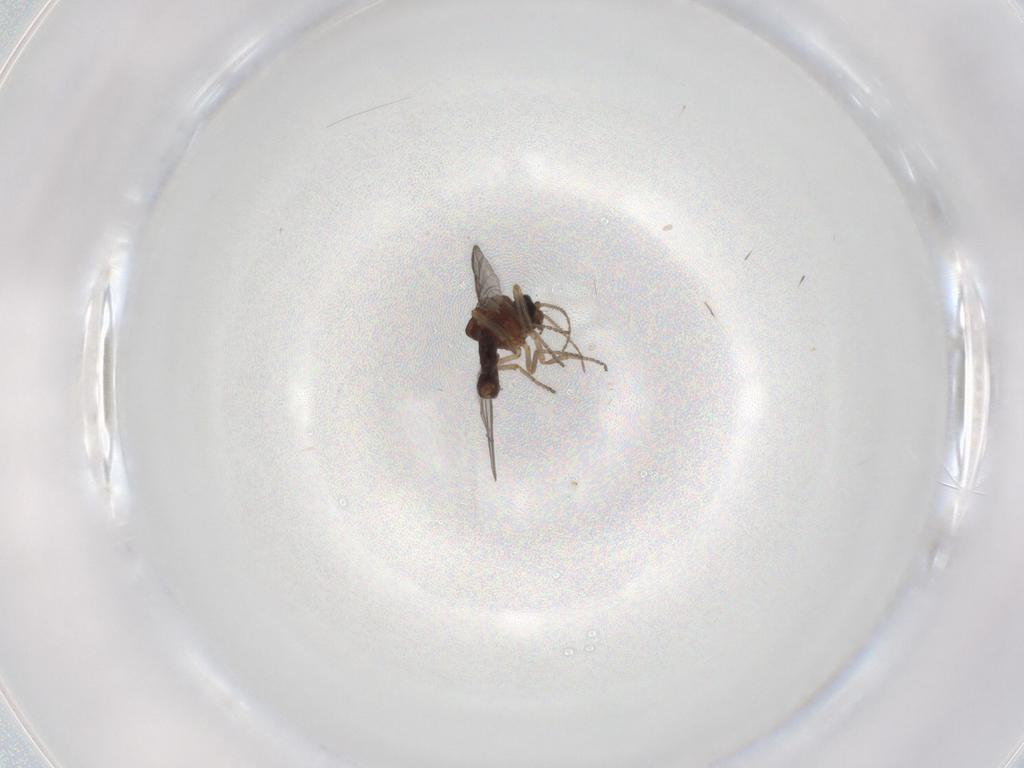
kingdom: Animalia
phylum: Arthropoda
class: Insecta
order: Diptera
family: Ceratopogonidae
